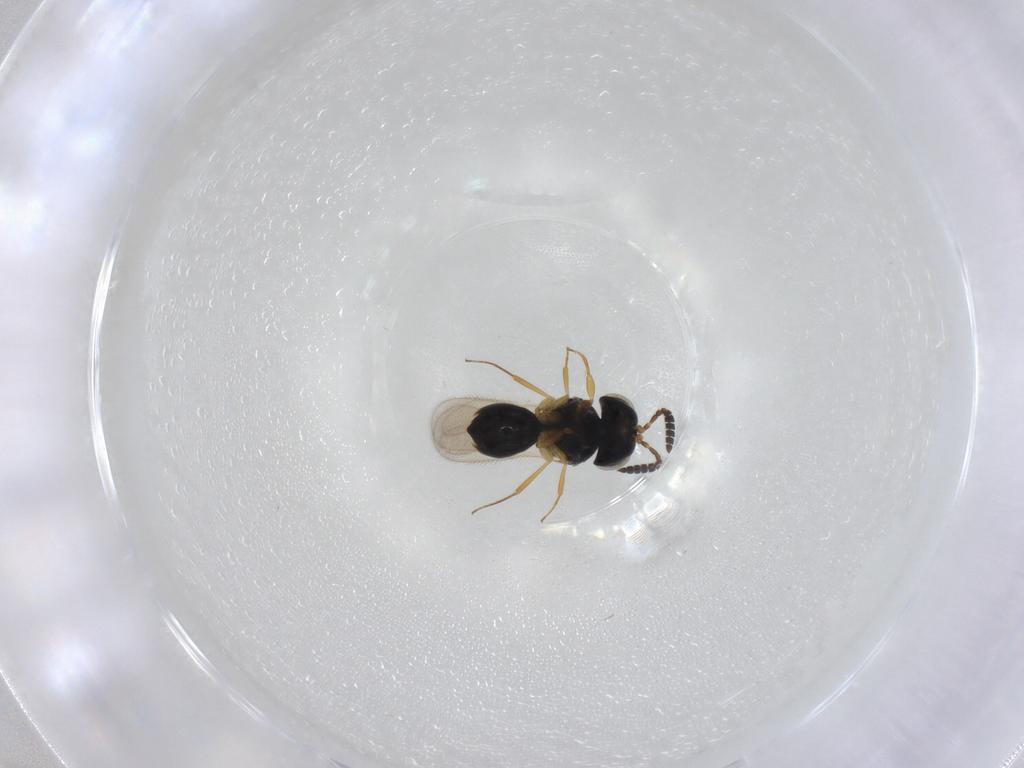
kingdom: Animalia
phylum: Arthropoda
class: Insecta
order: Hymenoptera
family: Scelionidae
